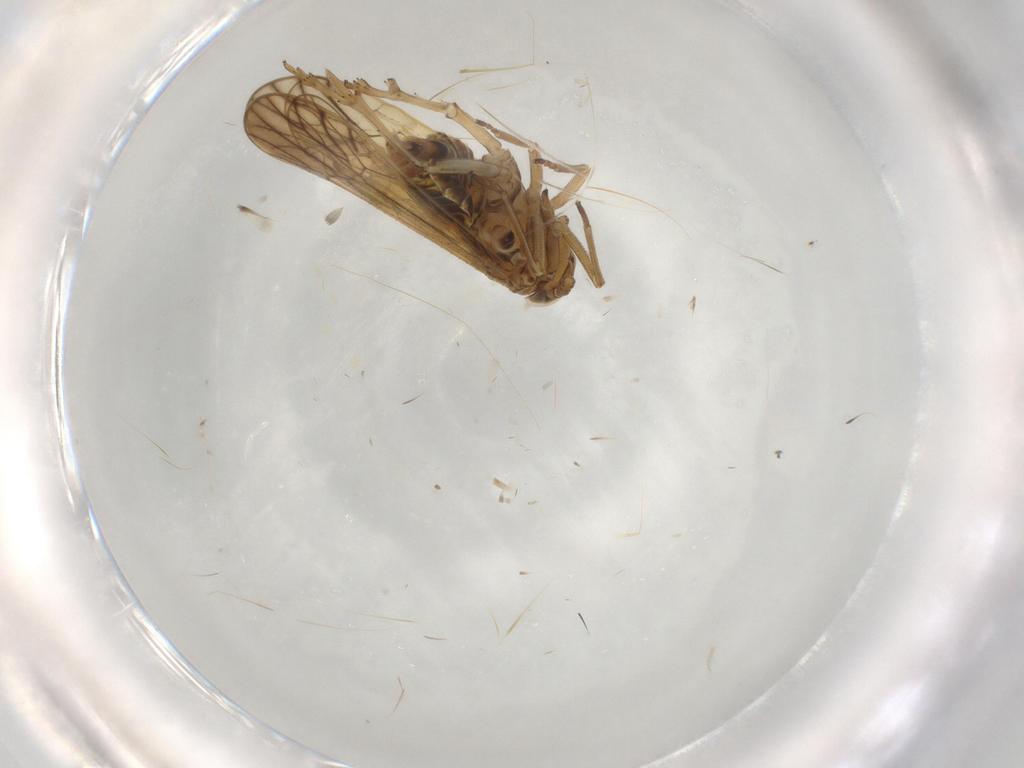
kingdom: Animalia
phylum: Arthropoda
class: Insecta
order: Hemiptera
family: Delphacidae
